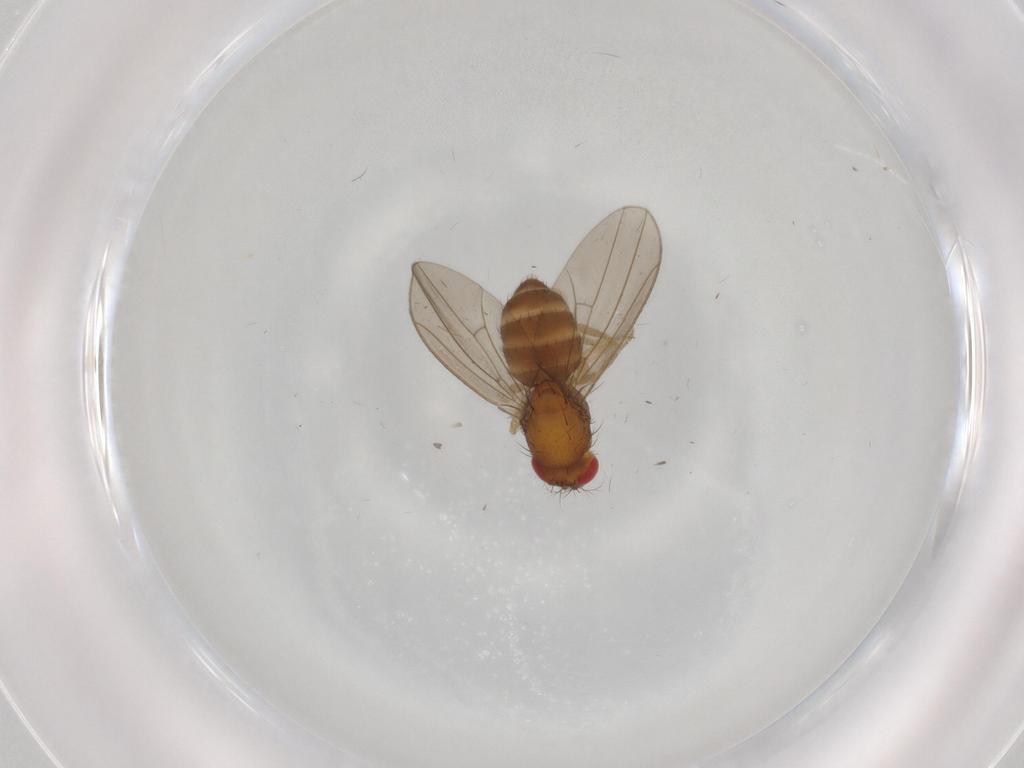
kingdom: Animalia
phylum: Arthropoda
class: Insecta
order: Diptera
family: Drosophilidae
